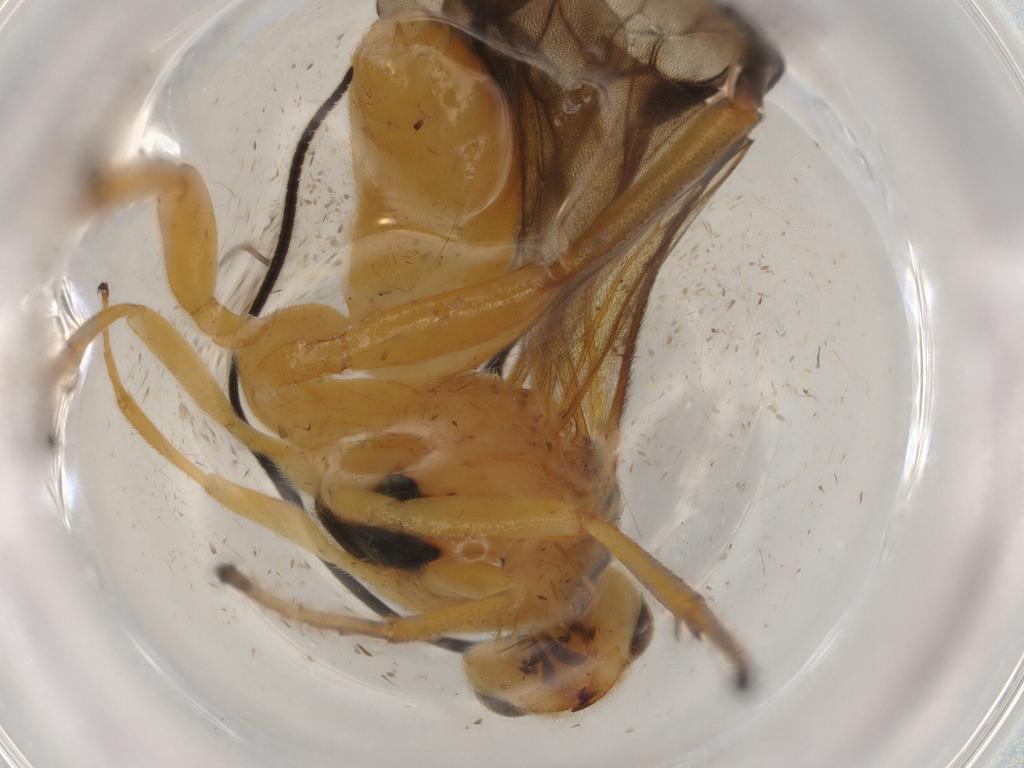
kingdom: Animalia
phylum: Arthropoda
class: Insecta
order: Hymenoptera
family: Braconidae
